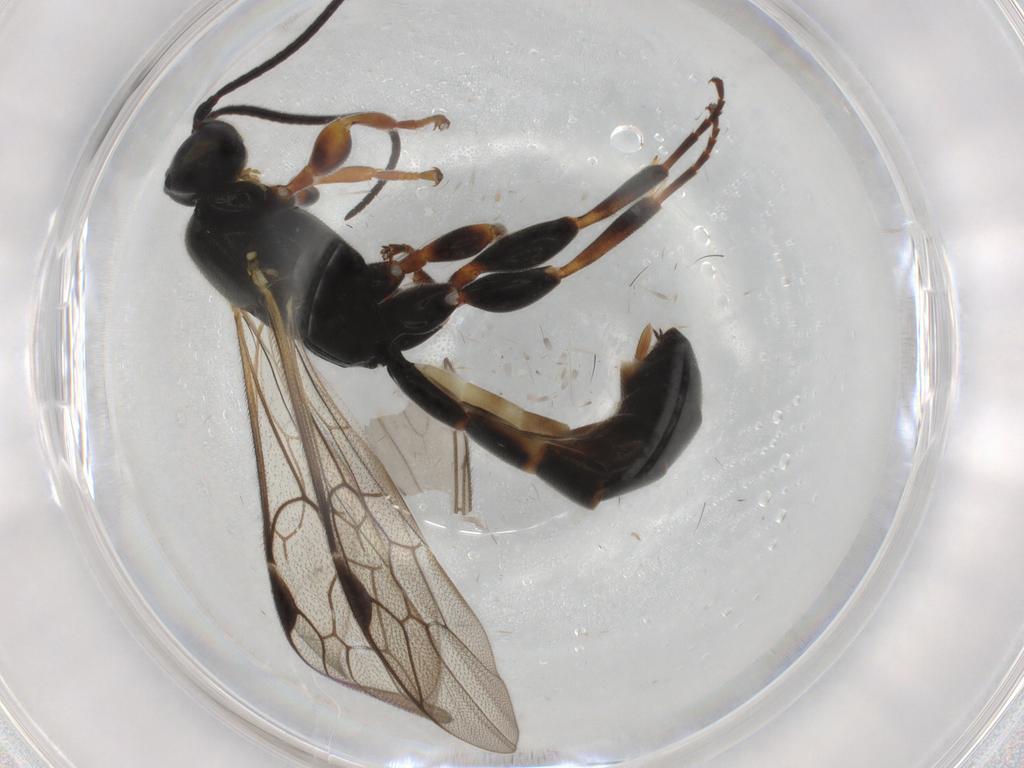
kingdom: Animalia
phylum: Arthropoda
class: Insecta
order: Hymenoptera
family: Ichneumonidae
